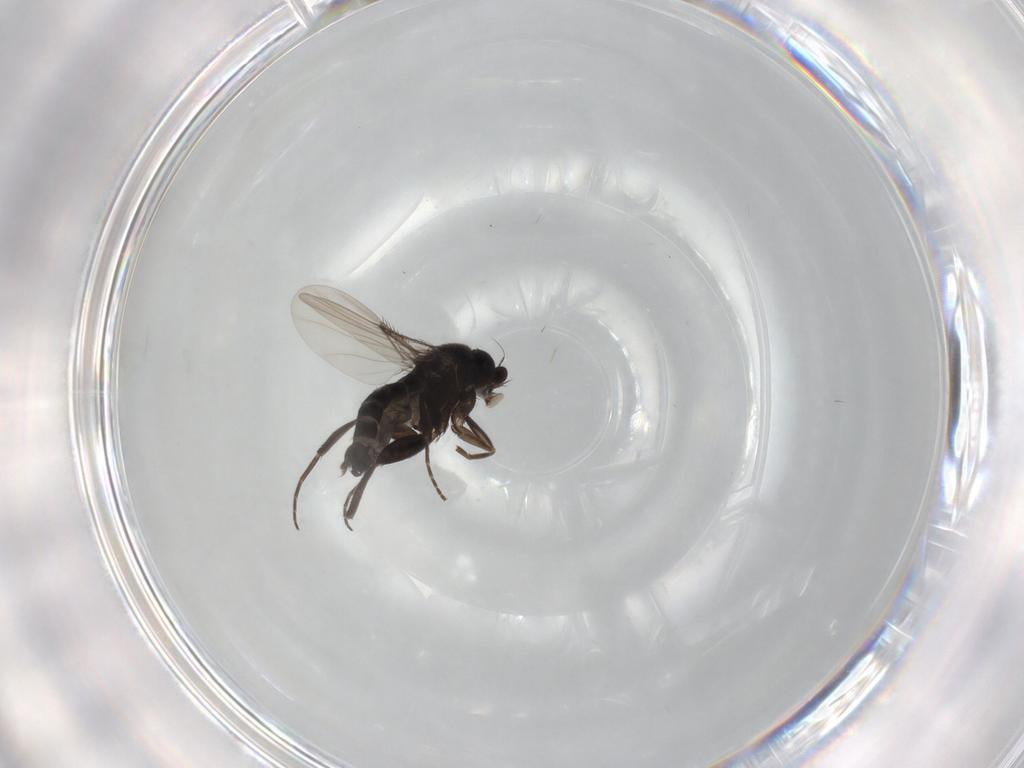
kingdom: Animalia
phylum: Arthropoda
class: Insecta
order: Diptera
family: Phoridae
